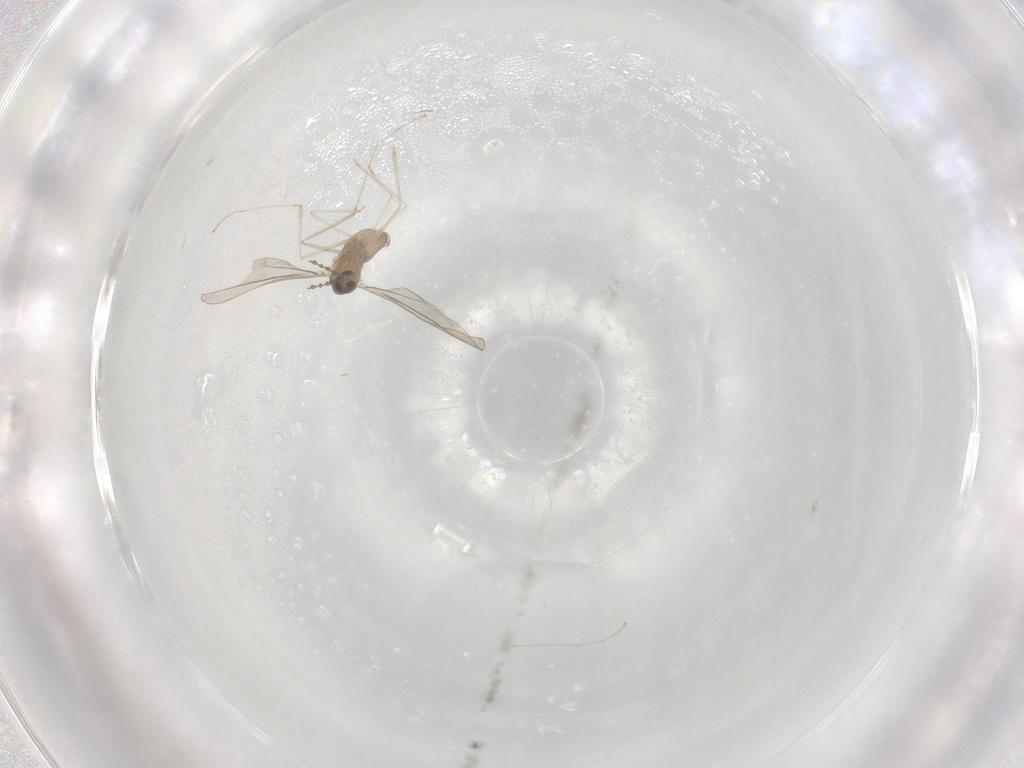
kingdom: Animalia
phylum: Arthropoda
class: Insecta
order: Diptera
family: Cecidomyiidae
